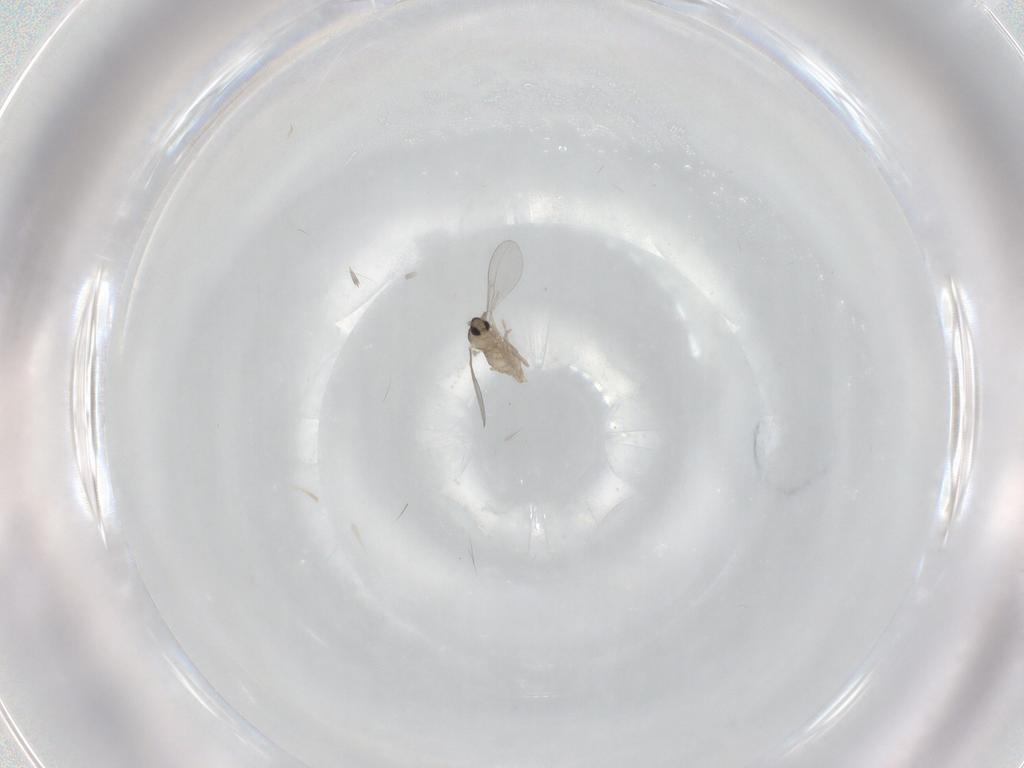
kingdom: Animalia
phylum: Arthropoda
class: Insecta
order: Diptera
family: Cecidomyiidae
